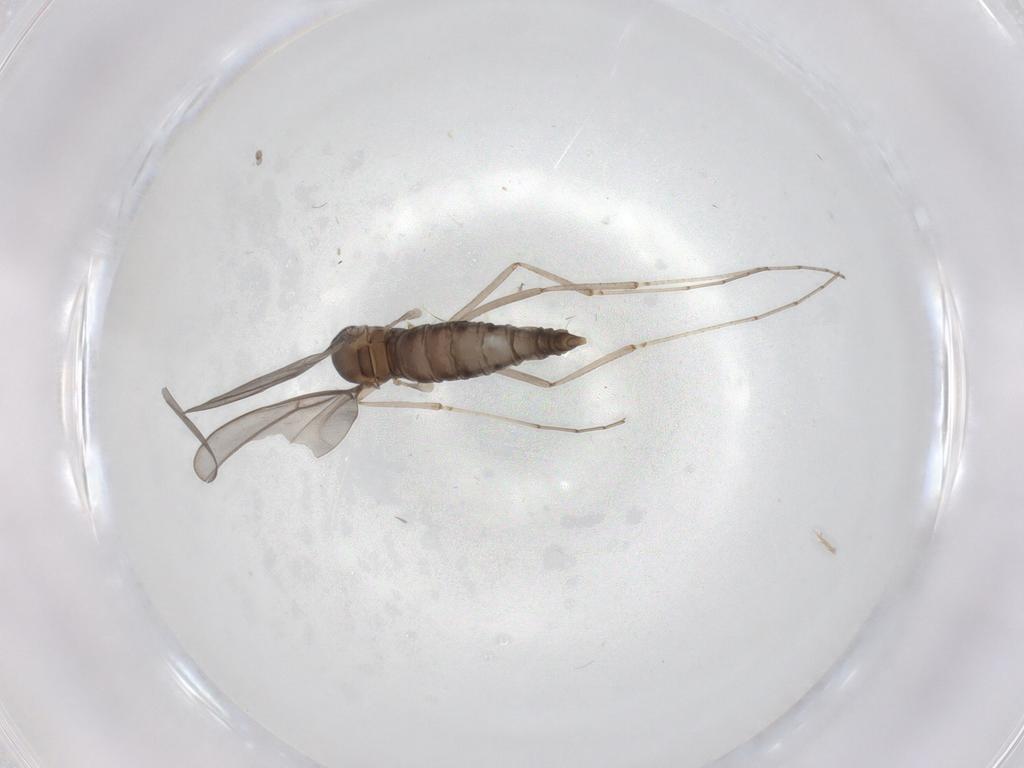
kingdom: Animalia
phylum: Arthropoda
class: Insecta
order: Diptera
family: Cecidomyiidae
